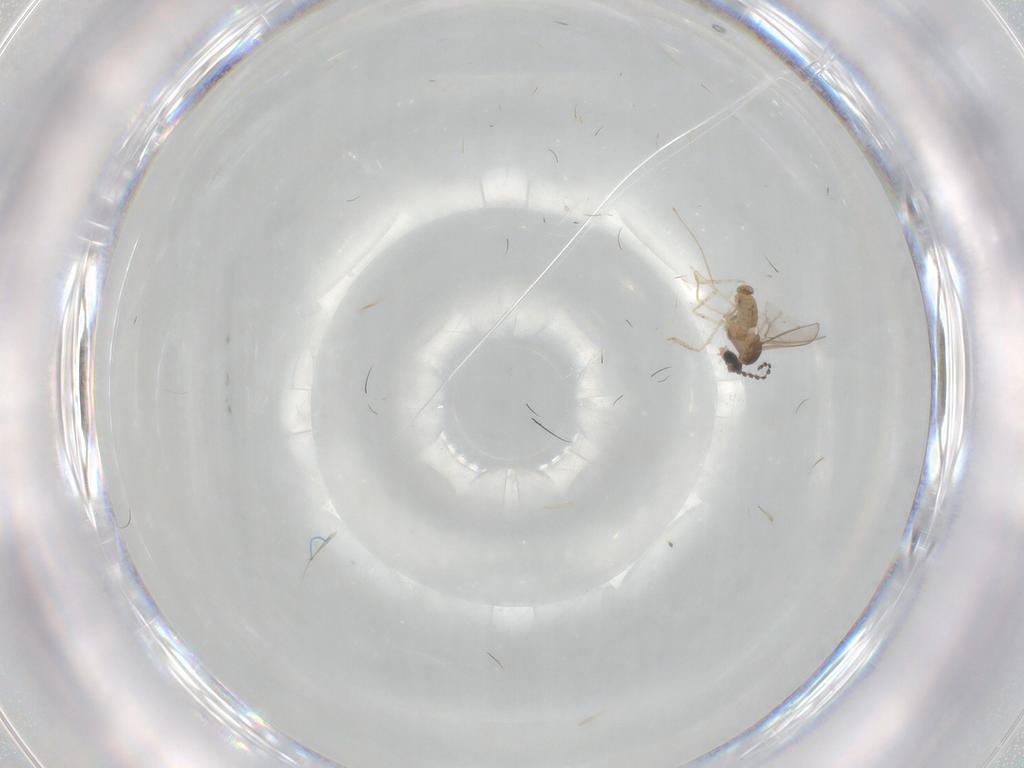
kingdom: Animalia
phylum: Arthropoda
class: Insecta
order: Diptera
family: Cecidomyiidae
